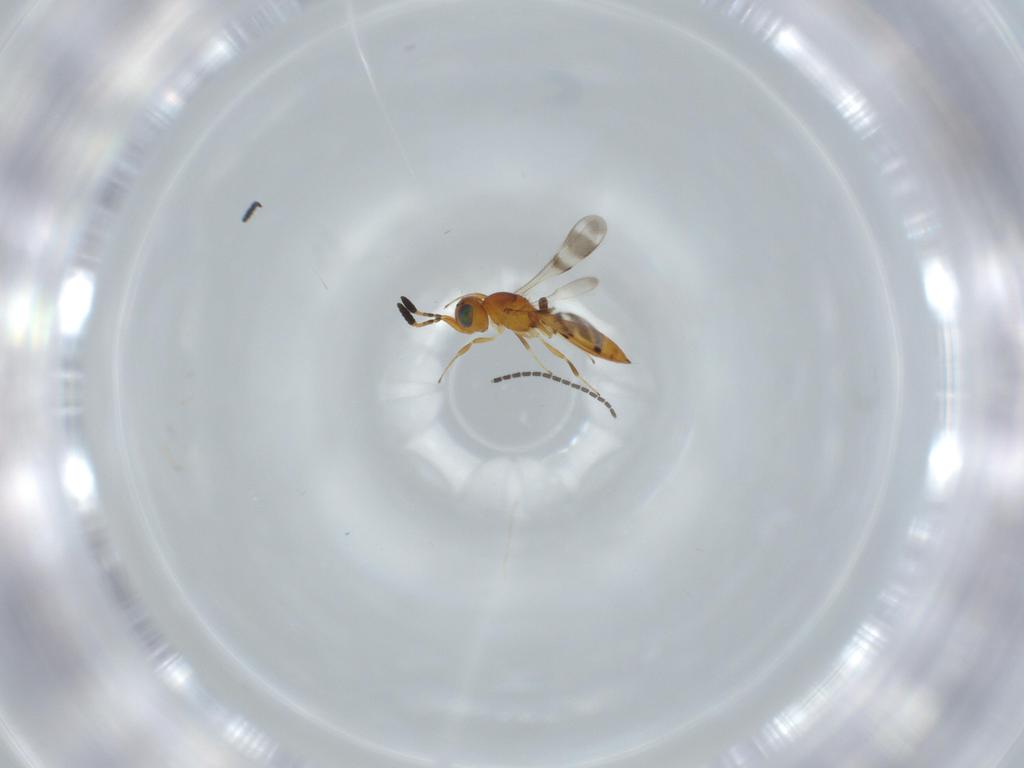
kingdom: Animalia
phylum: Arthropoda
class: Insecta
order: Hymenoptera
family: Scelionidae
